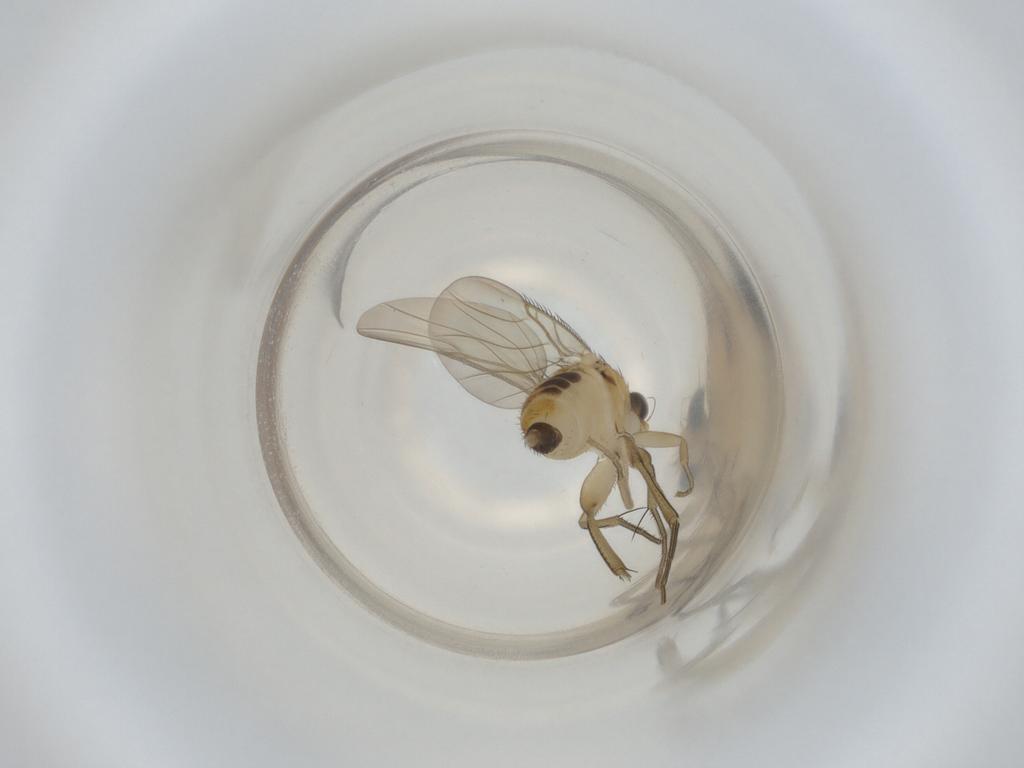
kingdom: Animalia
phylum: Arthropoda
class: Insecta
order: Diptera
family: Phoridae
